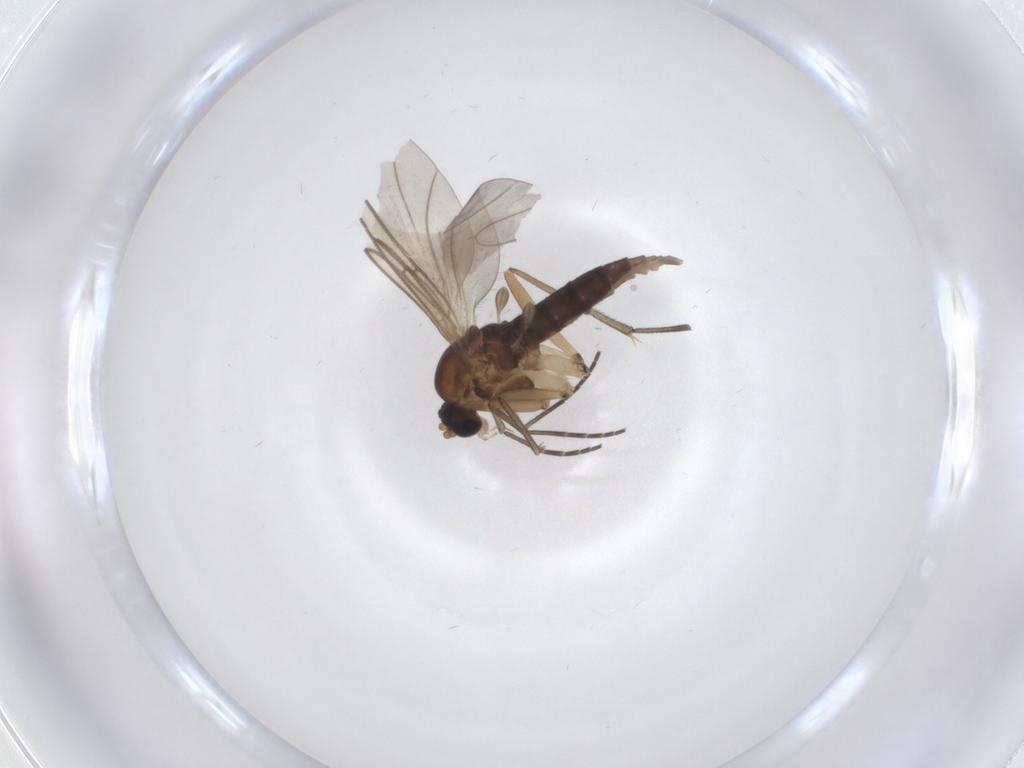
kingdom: Animalia
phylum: Arthropoda
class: Insecta
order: Diptera
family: Sciaridae
